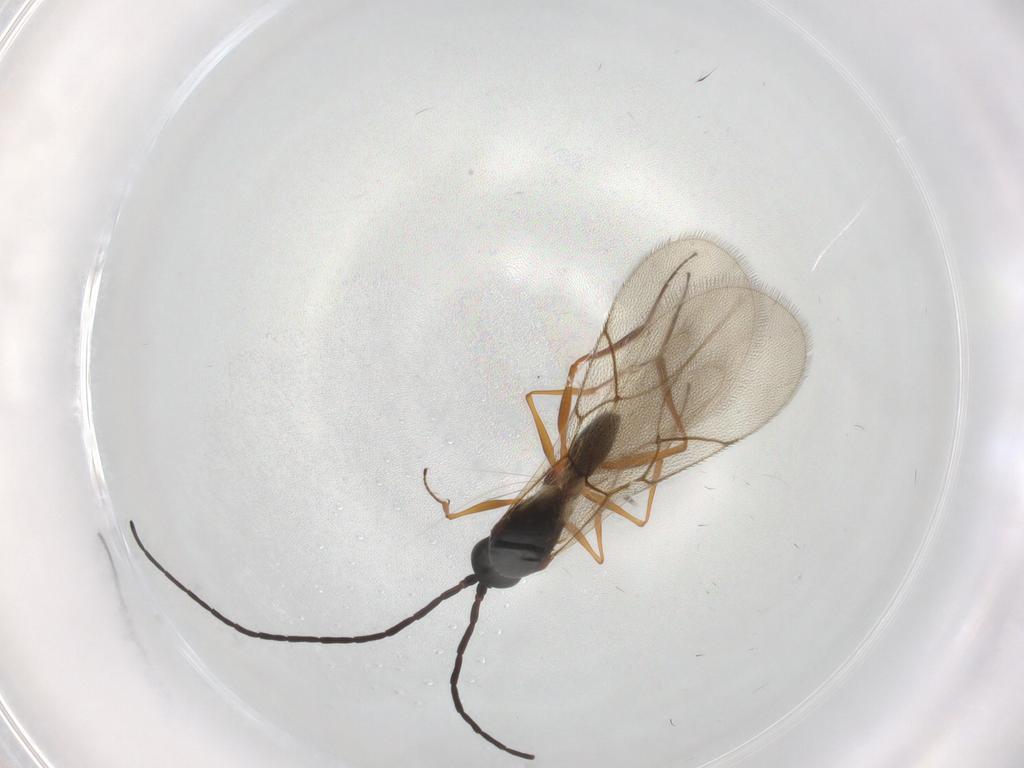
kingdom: Animalia
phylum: Arthropoda
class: Insecta
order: Hymenoptera
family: Figitidae
